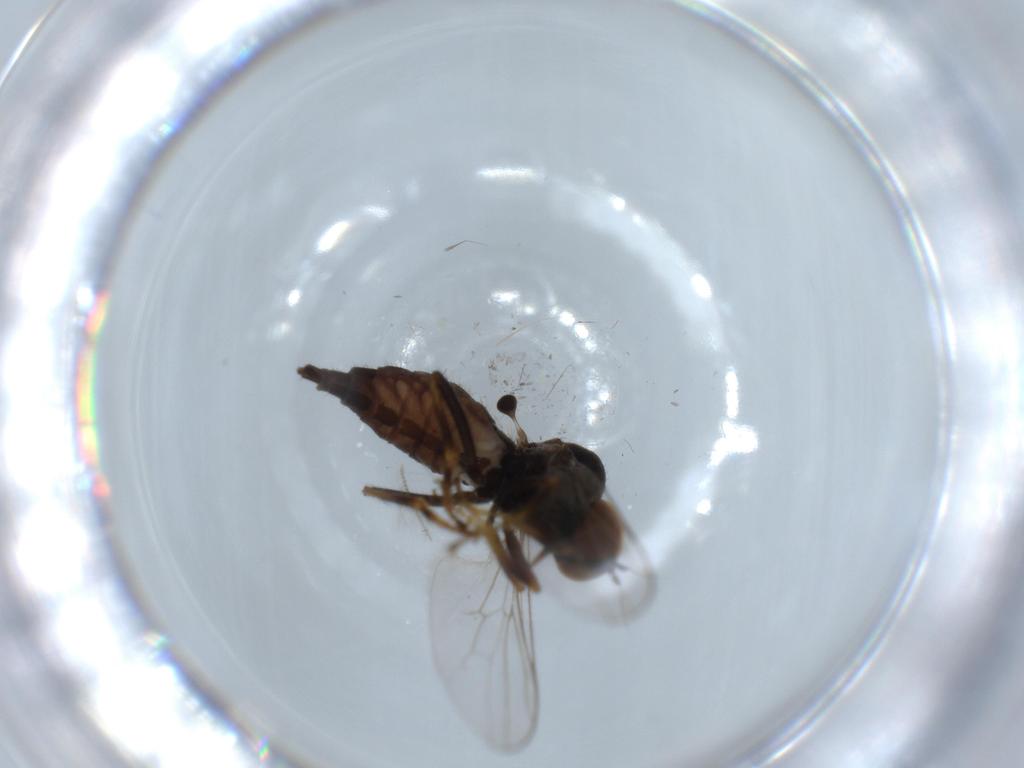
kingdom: Animalia
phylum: Arthropoda
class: Insecta
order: Diptera
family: Hybotidae
